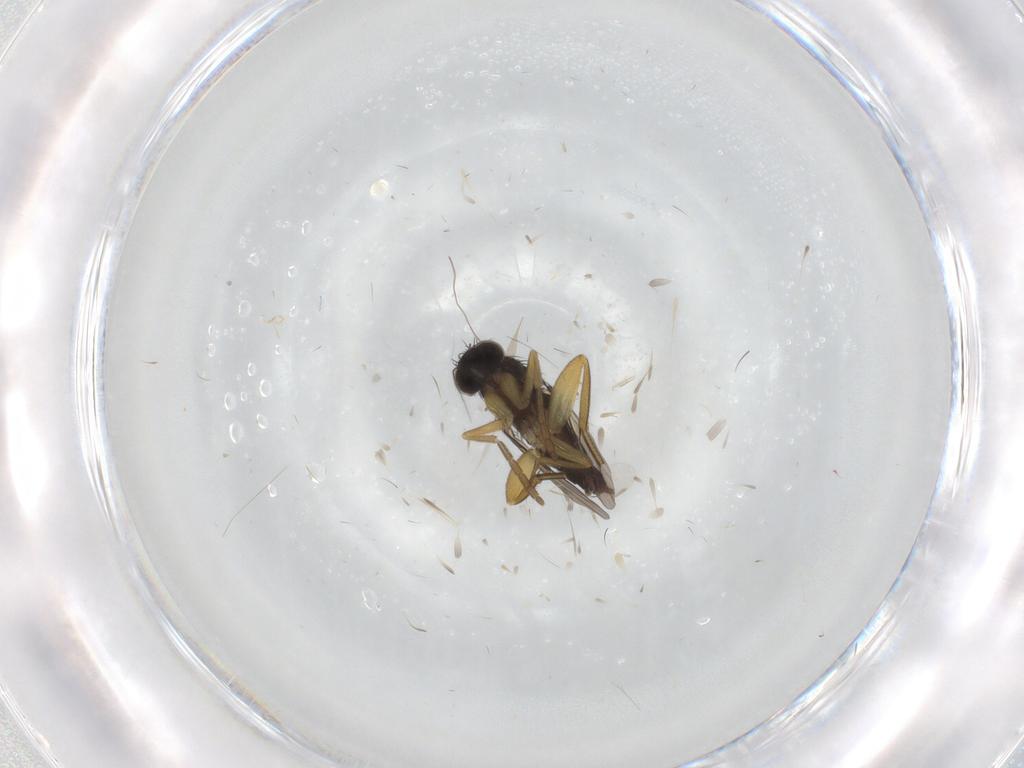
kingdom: Animalia
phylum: Arthropoda
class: Insecta
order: Diptera
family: Phoridae
